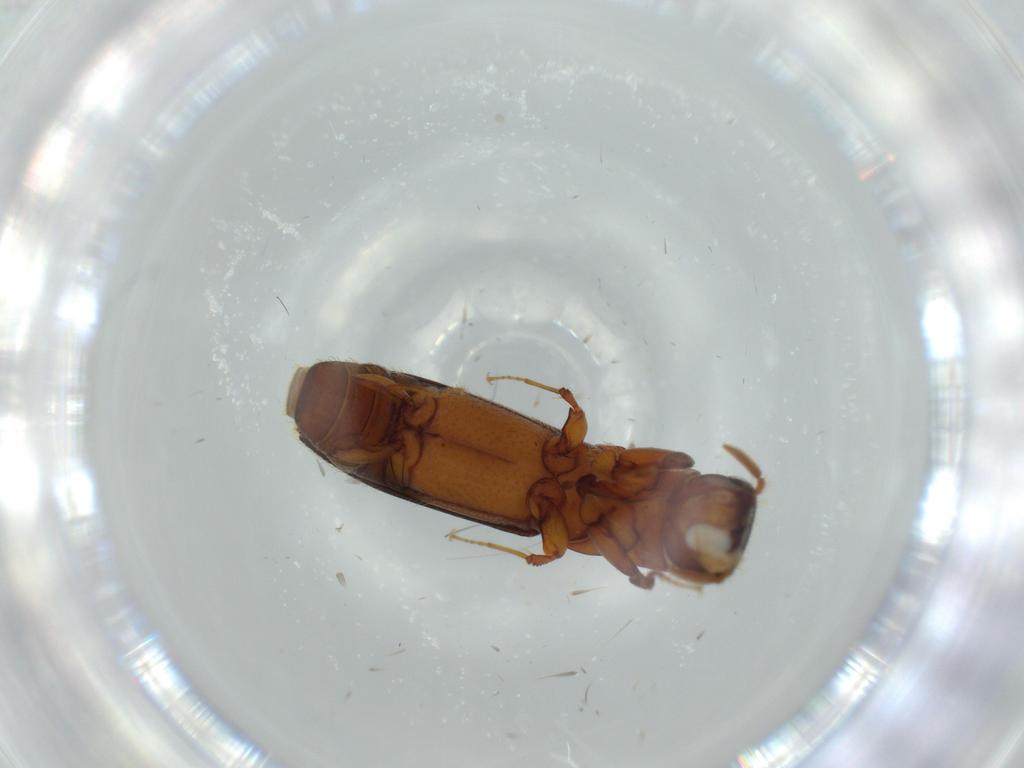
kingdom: Animalia
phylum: Arthropoda
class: Insecta
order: Coleoptera
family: Curculionidae
